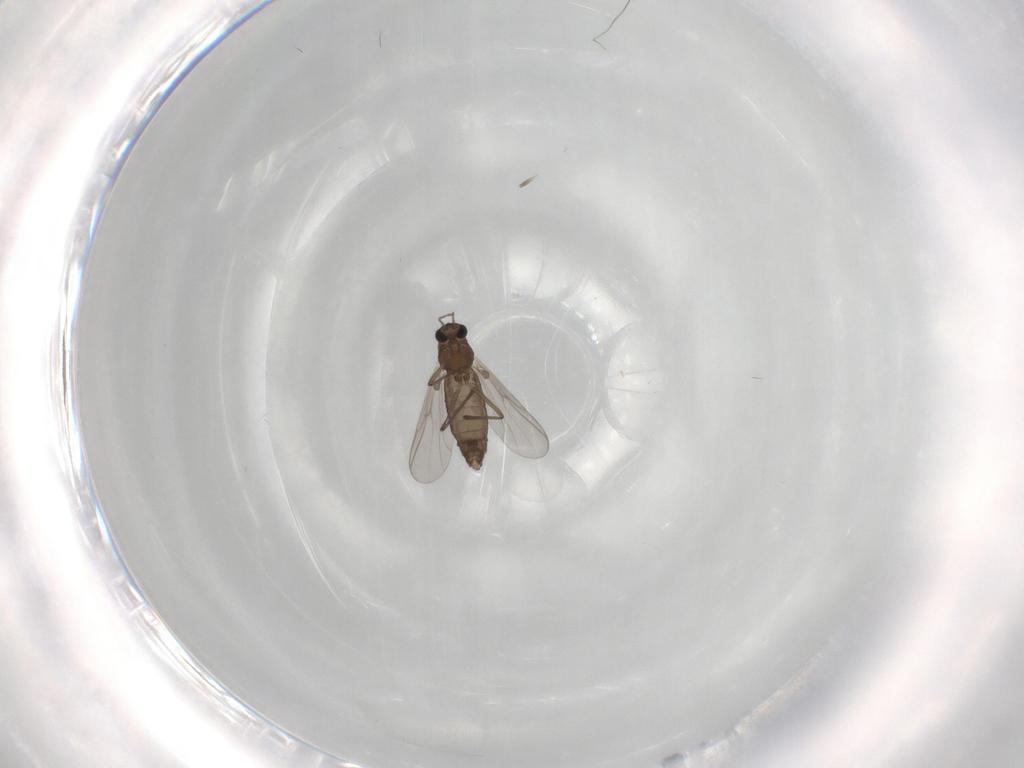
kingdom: Animalia
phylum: Arthropoda
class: Insecta
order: Diptera
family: Chironomidae
